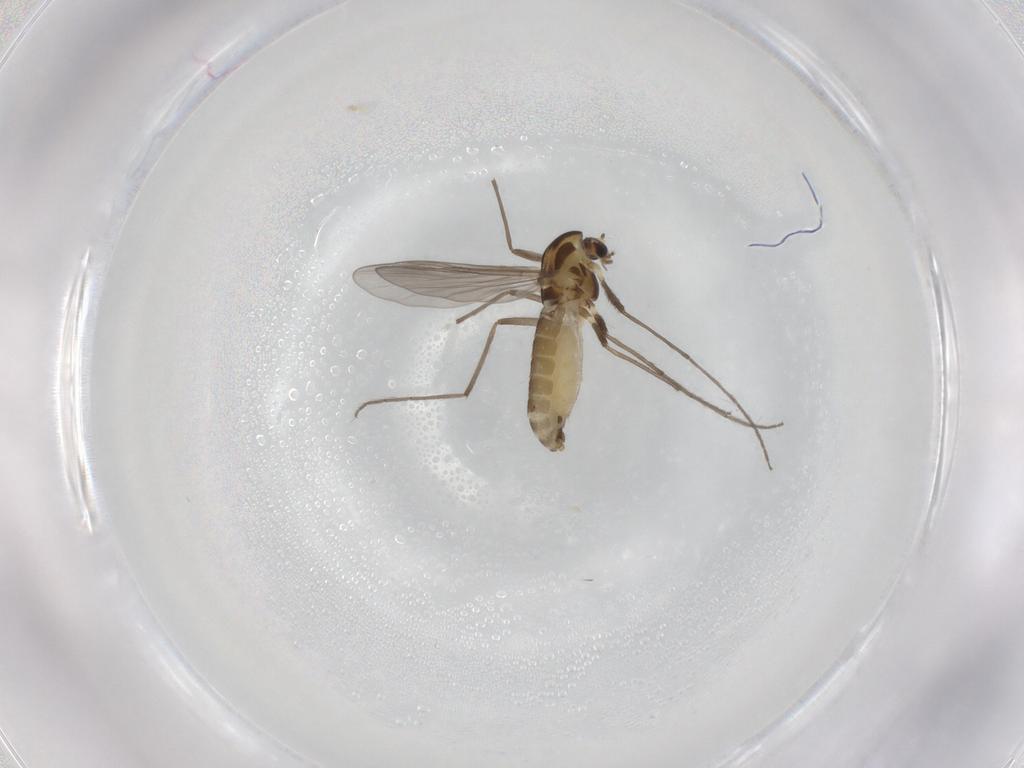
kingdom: Animalia
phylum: Arthropoda
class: Insecta
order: Diptera
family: Chironomidae
